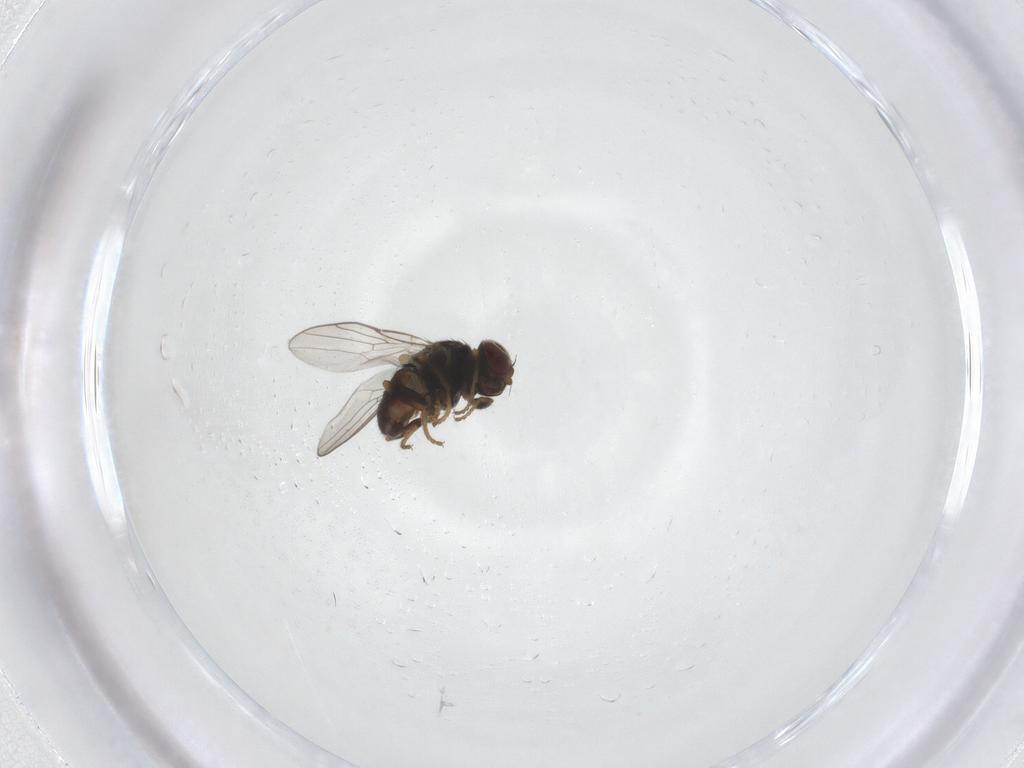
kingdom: Animalia
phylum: Arthropoda
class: Insecta
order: Diptera
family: Chloropidae
